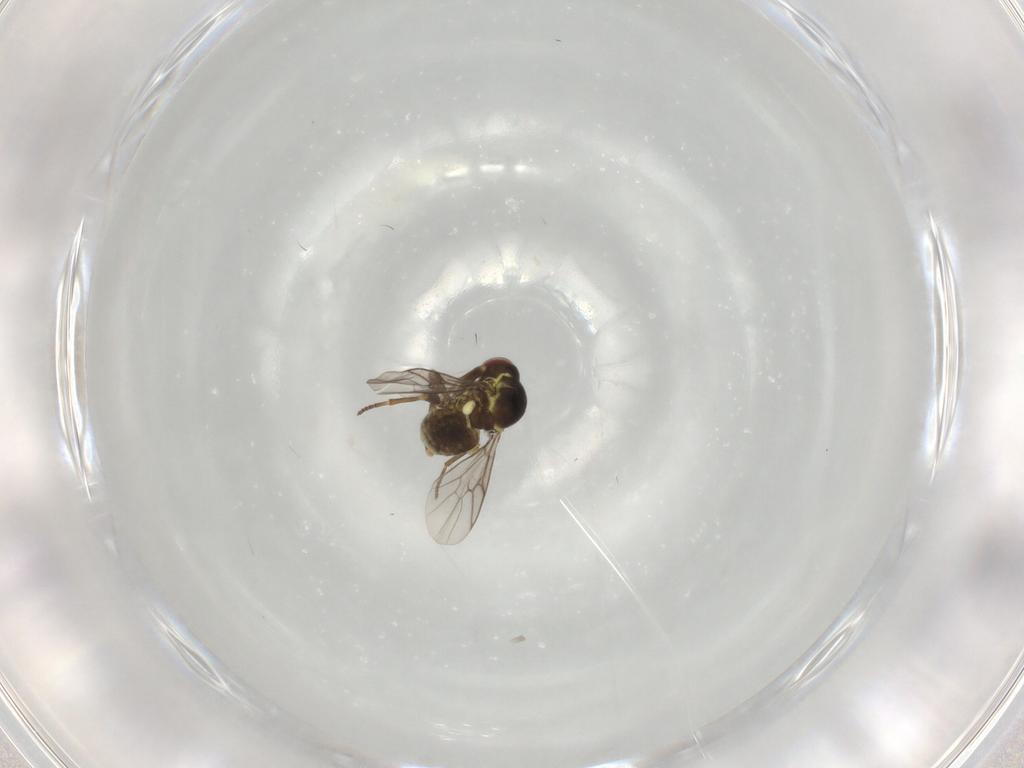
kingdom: Animalia
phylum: Arthropoda
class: Insecta
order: Diptera
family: Bombyliidae
